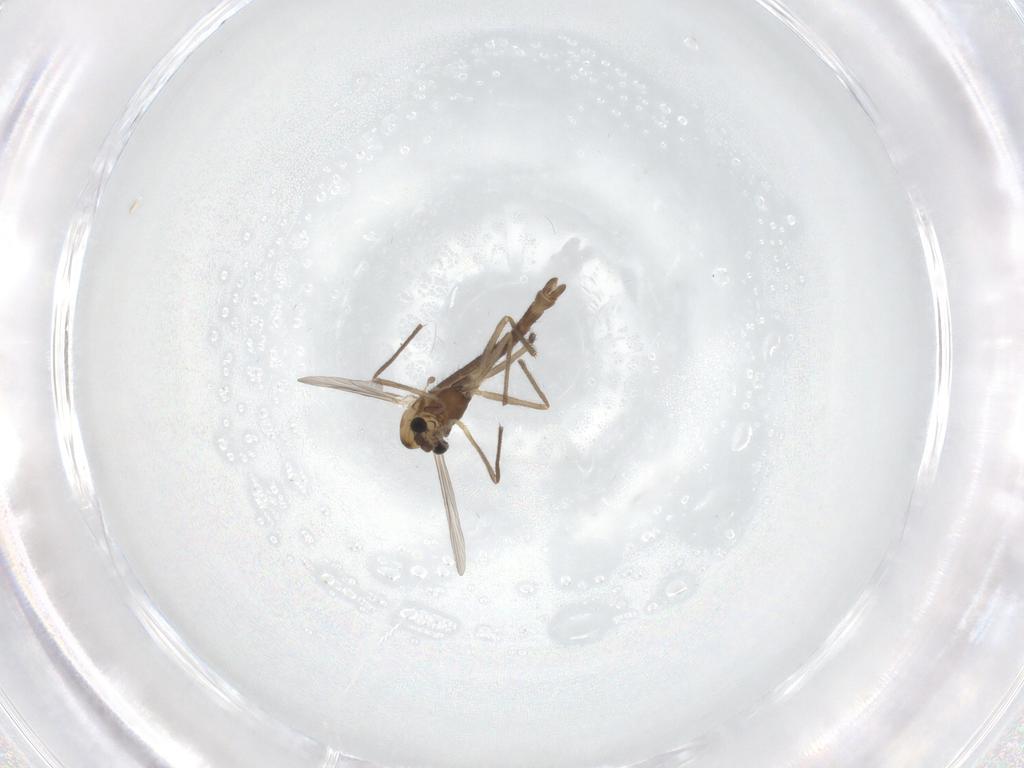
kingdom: Animalia
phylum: Arthropoda
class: Insecta
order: Diptera
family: Chironomidae
